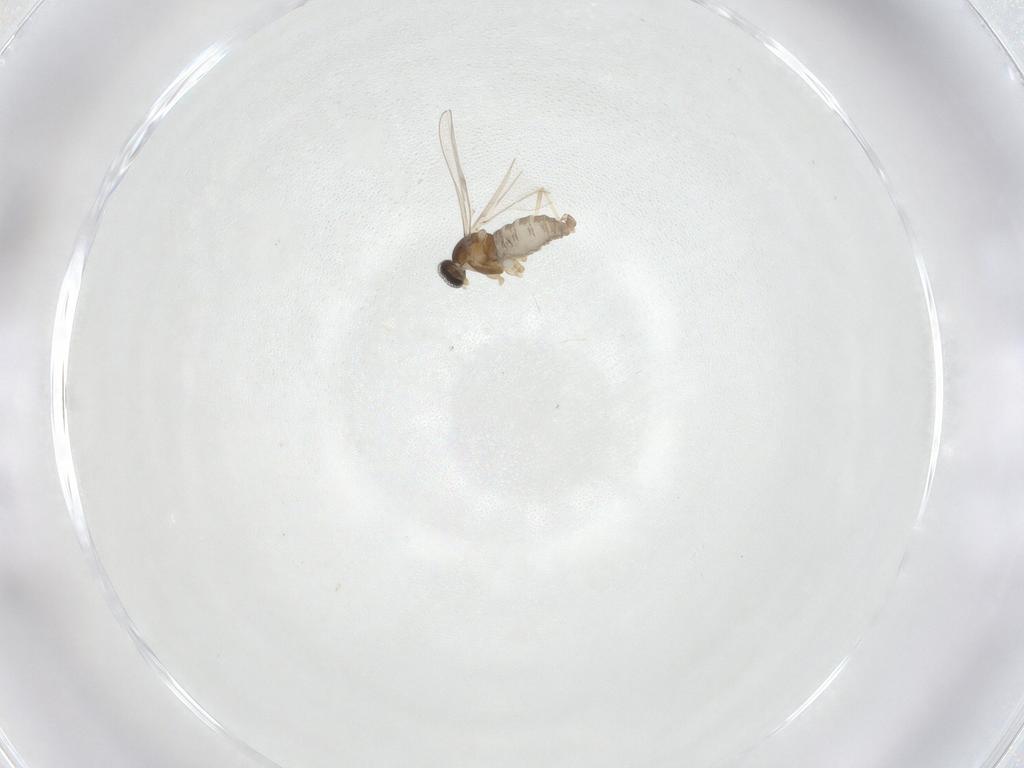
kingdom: Animalia
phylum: Arthropoda
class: Insecta
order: Diptera
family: Cecidomyiidae
